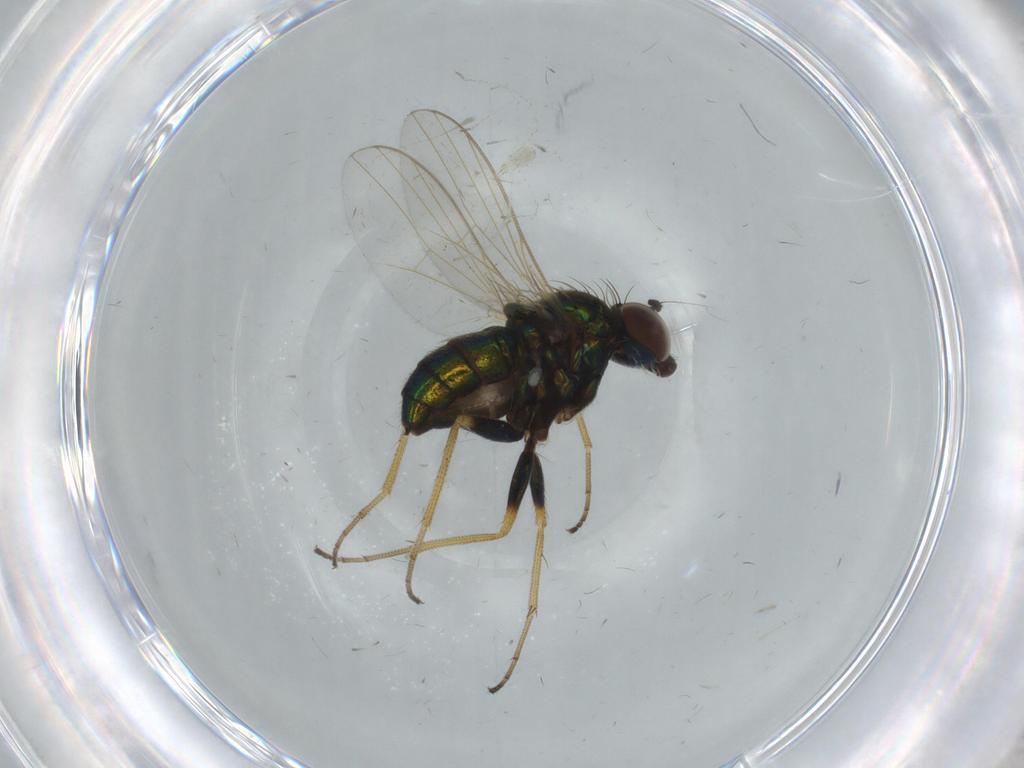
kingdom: Animalia
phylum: Arthropoda
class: Insecta
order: Diptera
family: Dolichopodidae
